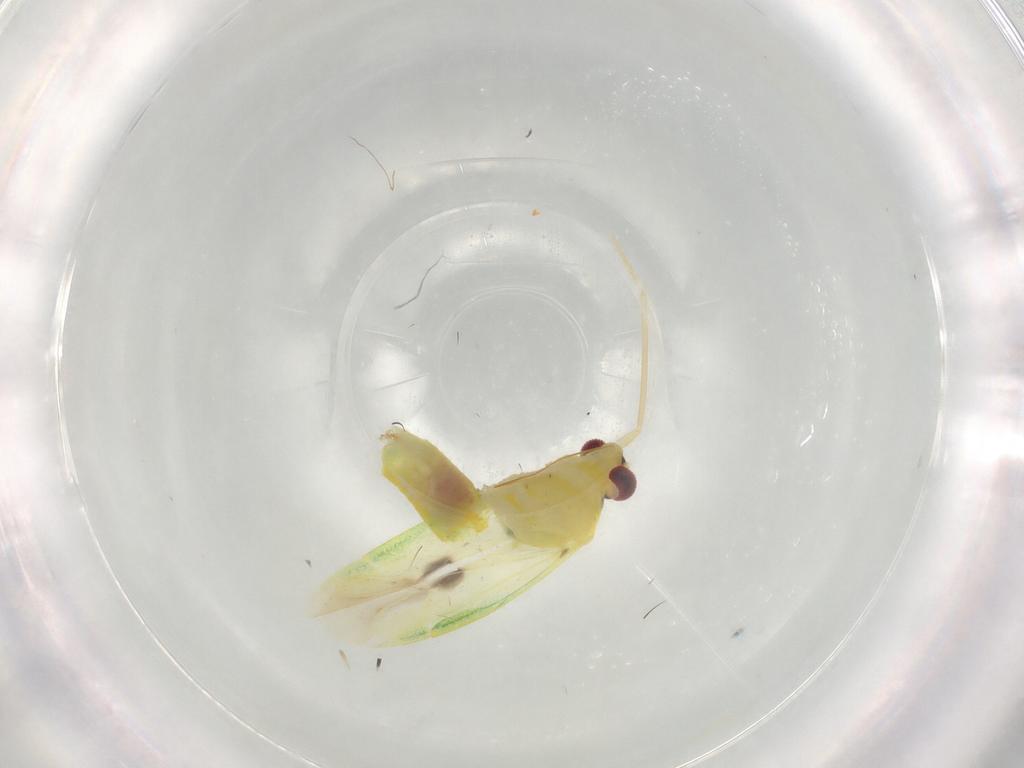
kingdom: Animalia
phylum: Arthropoda
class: Insecta
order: Hemiptera
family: Miridae
